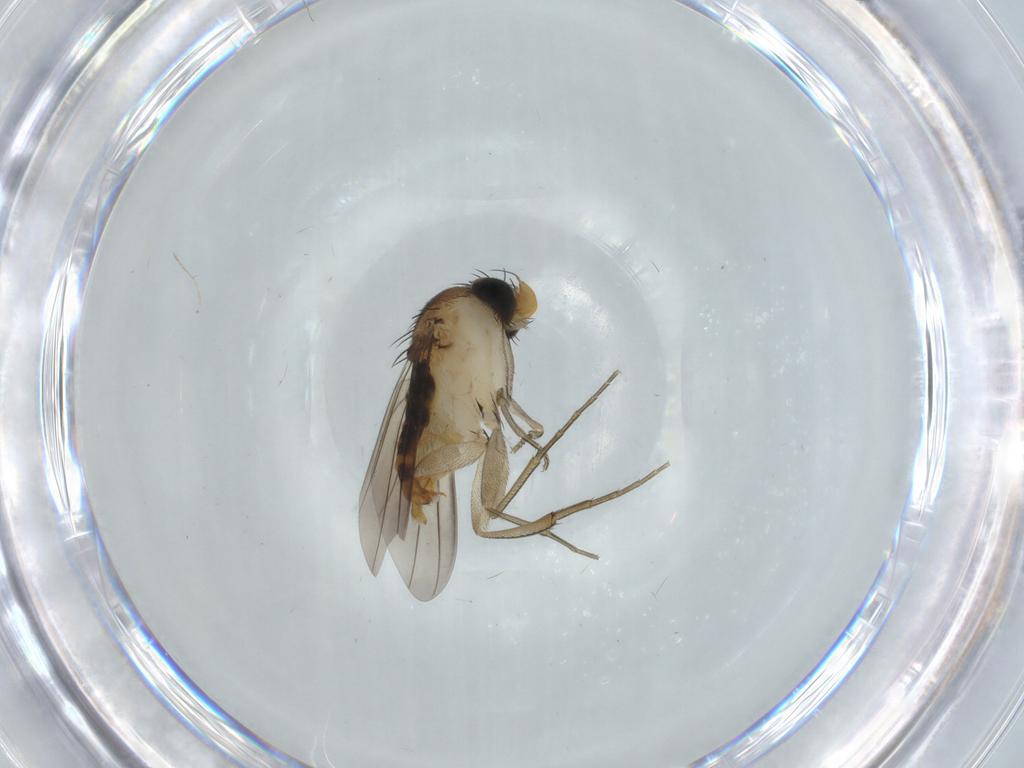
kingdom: Animalia
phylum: Arthropoda
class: Insecta
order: Diptera
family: Phoridae
